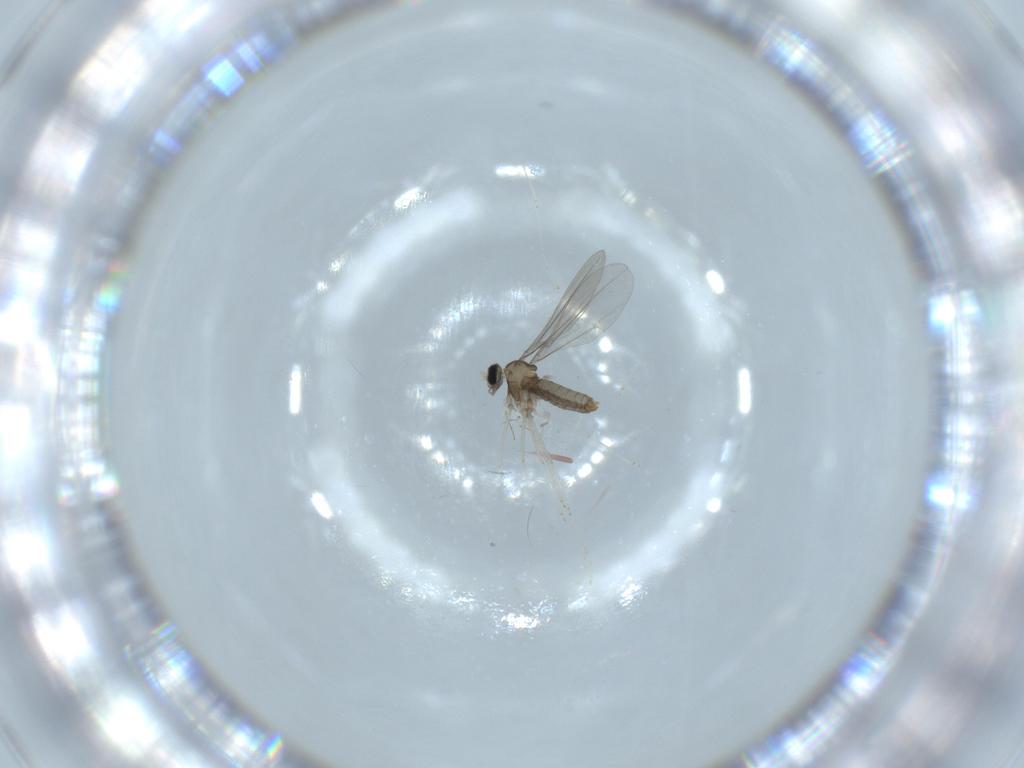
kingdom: Animalia
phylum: Arthropoda
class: Insecta
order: Diptera
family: Cecidomyiidae
